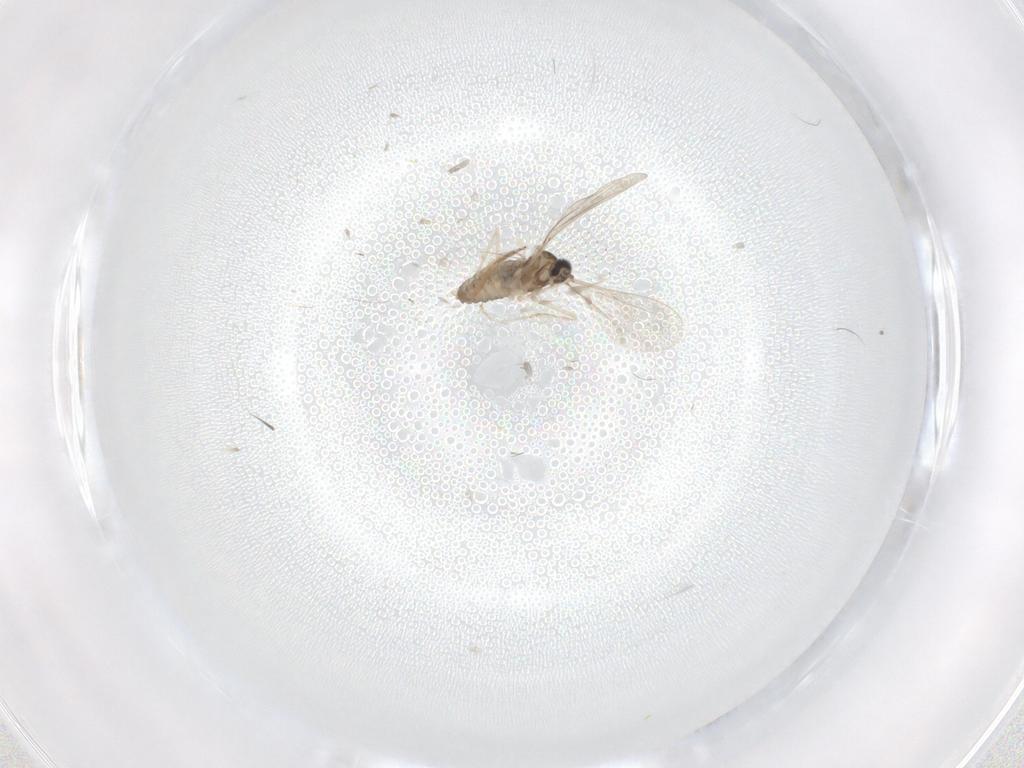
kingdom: Animalia
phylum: Arthropoda
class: Insecta
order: Diptera
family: Cecidomyiidae
